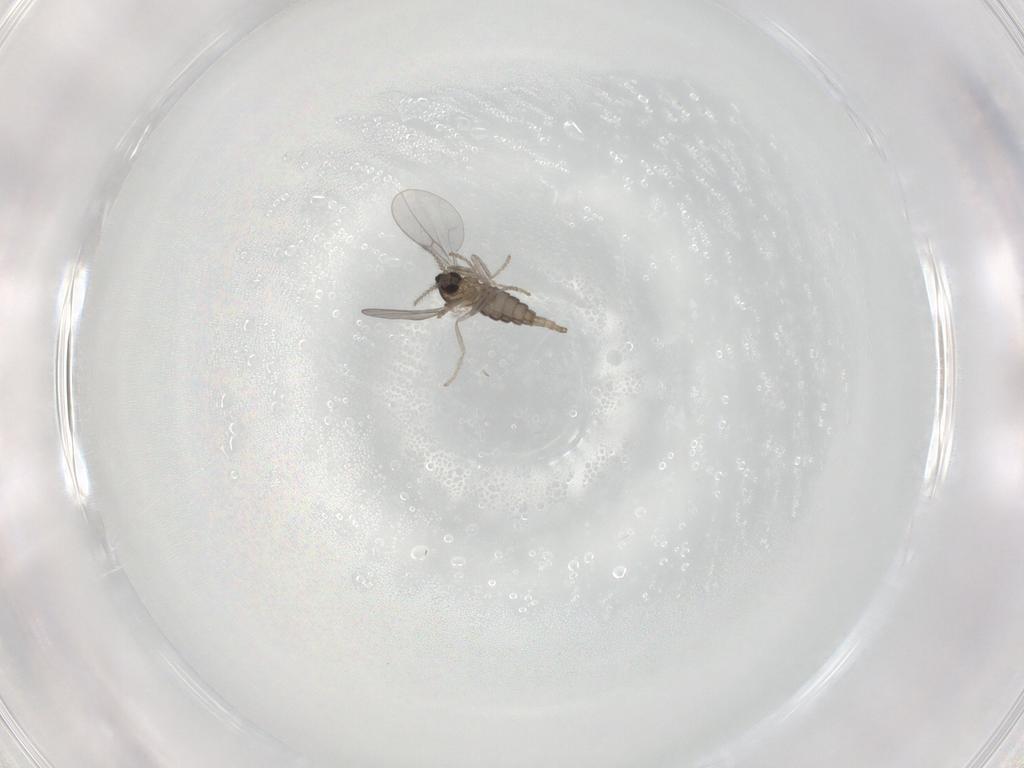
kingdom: Animalia
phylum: Arthropoda
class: Insecta
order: Diptera
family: Cecidomyiidae
